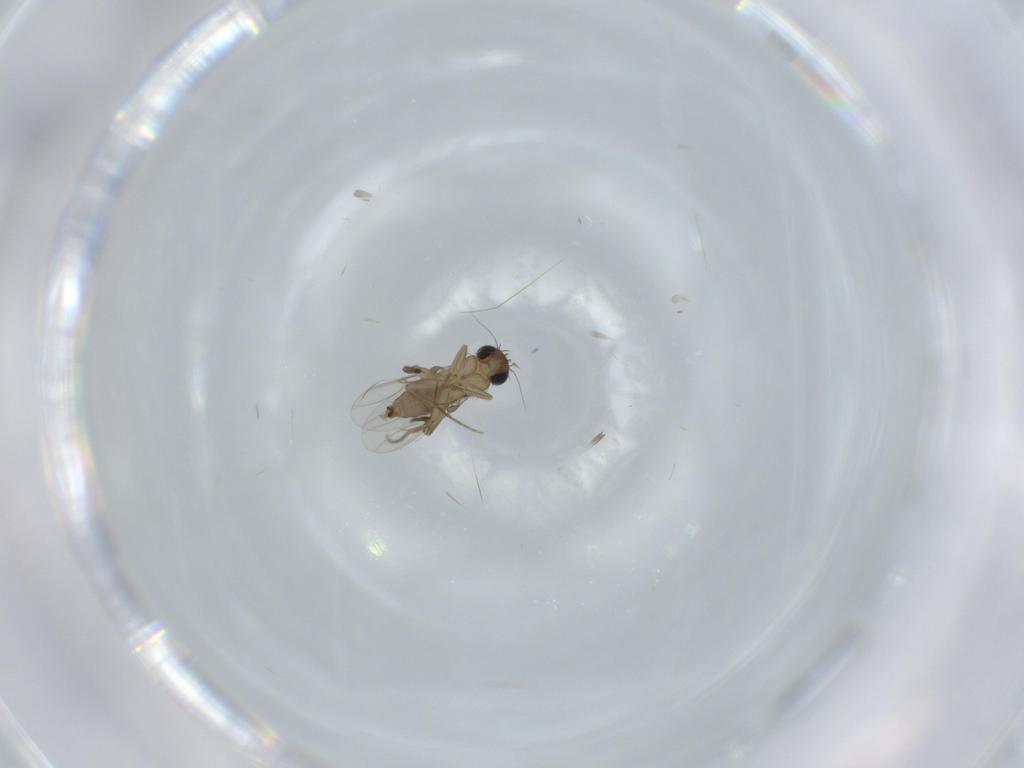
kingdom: Animalia
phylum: Arthropoda
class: Insecta
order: Diptera
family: Phoridae
